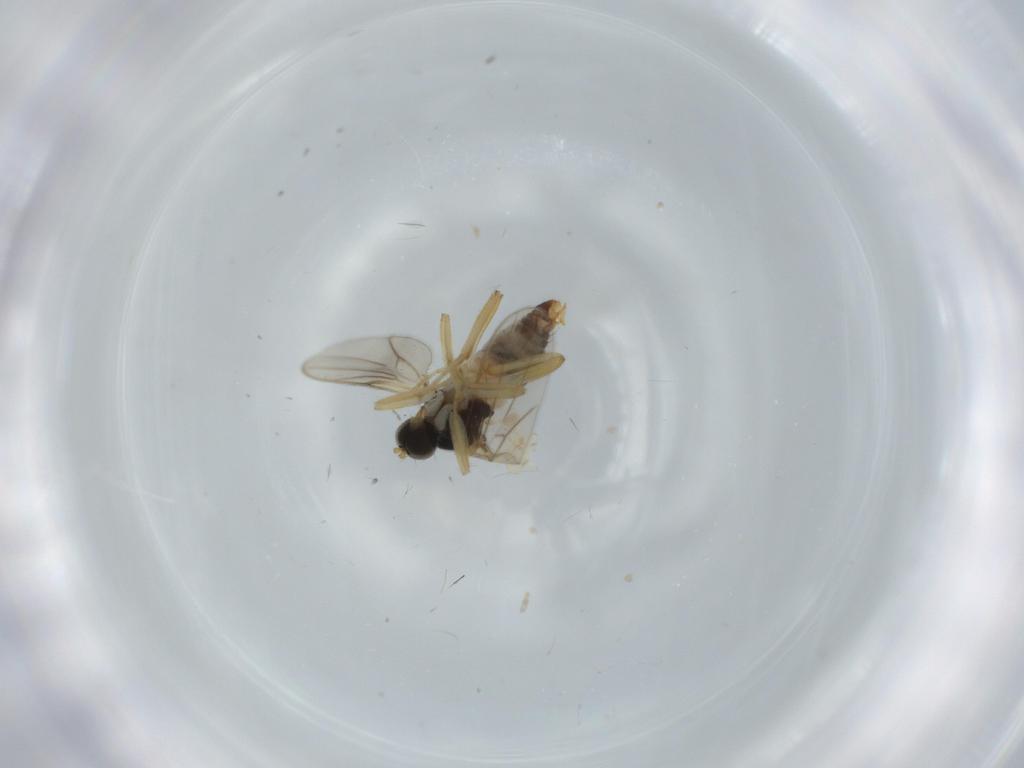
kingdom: Animalia
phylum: Arthropoda
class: Insecta
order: Diptera
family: Hybotidae
